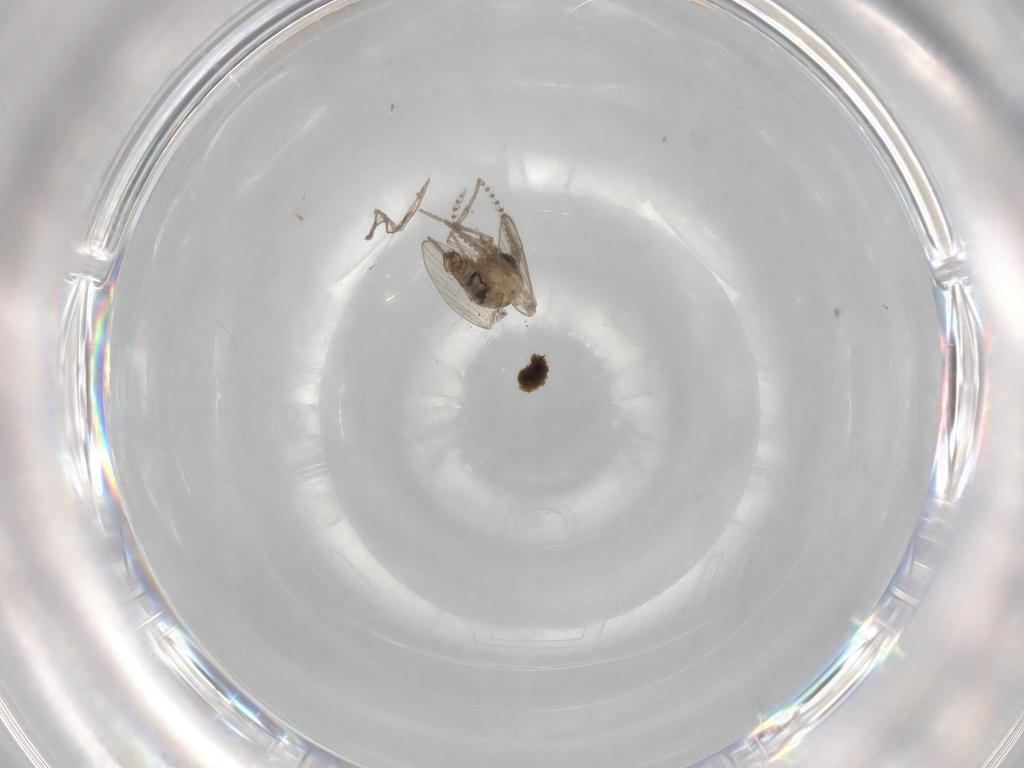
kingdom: Animalia
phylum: Arthropoda
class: Insecta
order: Diptera
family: Psychodidae
